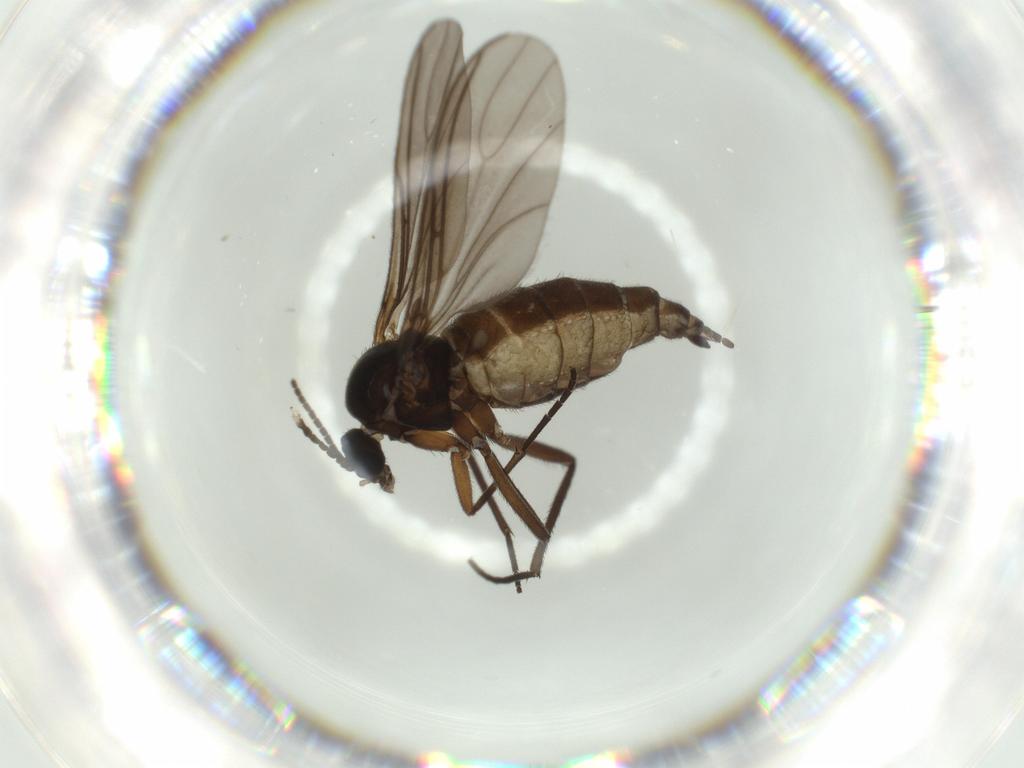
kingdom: Animalia
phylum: Arthropoda
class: Insecta
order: Diptera
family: Sciaridae
